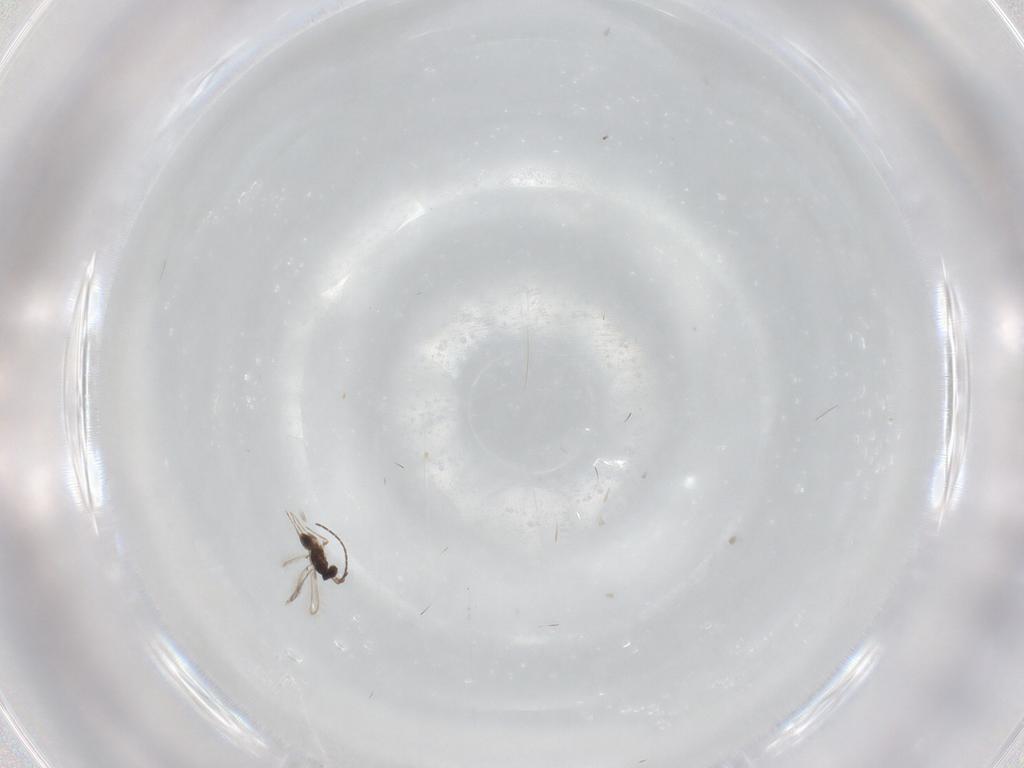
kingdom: Animalia
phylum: Arthropoda
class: Insecta
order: Hymenoptera
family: Mymaridae
